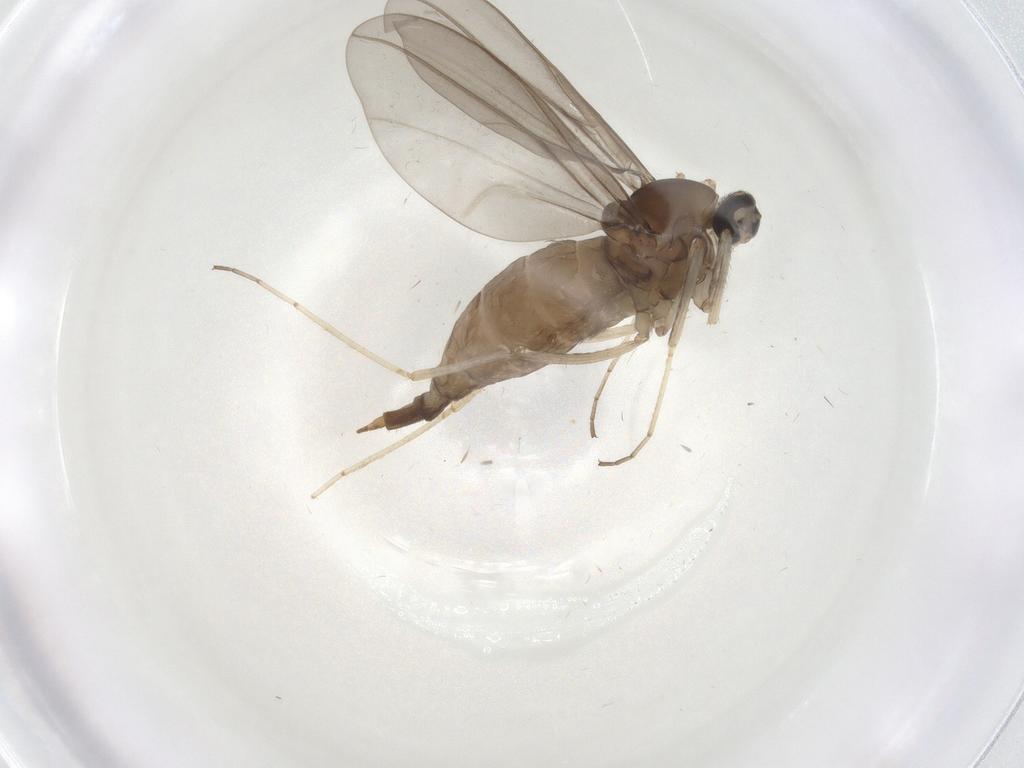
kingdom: Animalia
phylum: Arthropoda
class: Insecta
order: Diptera
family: Cecidomyiidae
